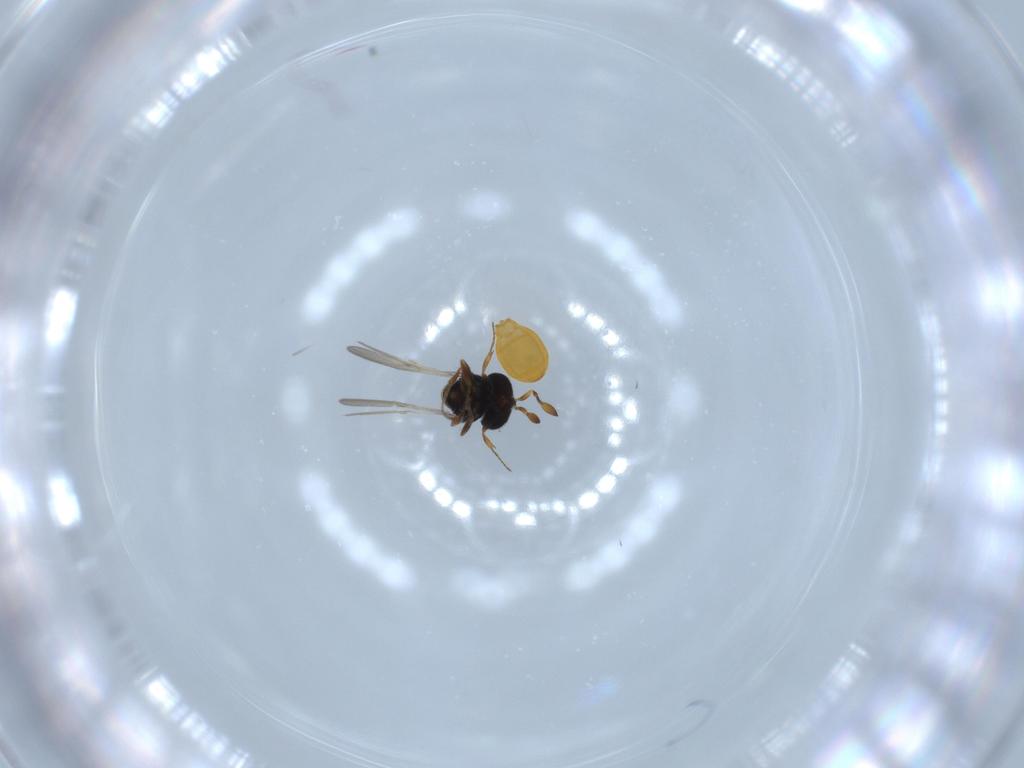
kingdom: Animalia
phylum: Arthropoda
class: Insecta
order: Hymenoptera
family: Scelionidae
